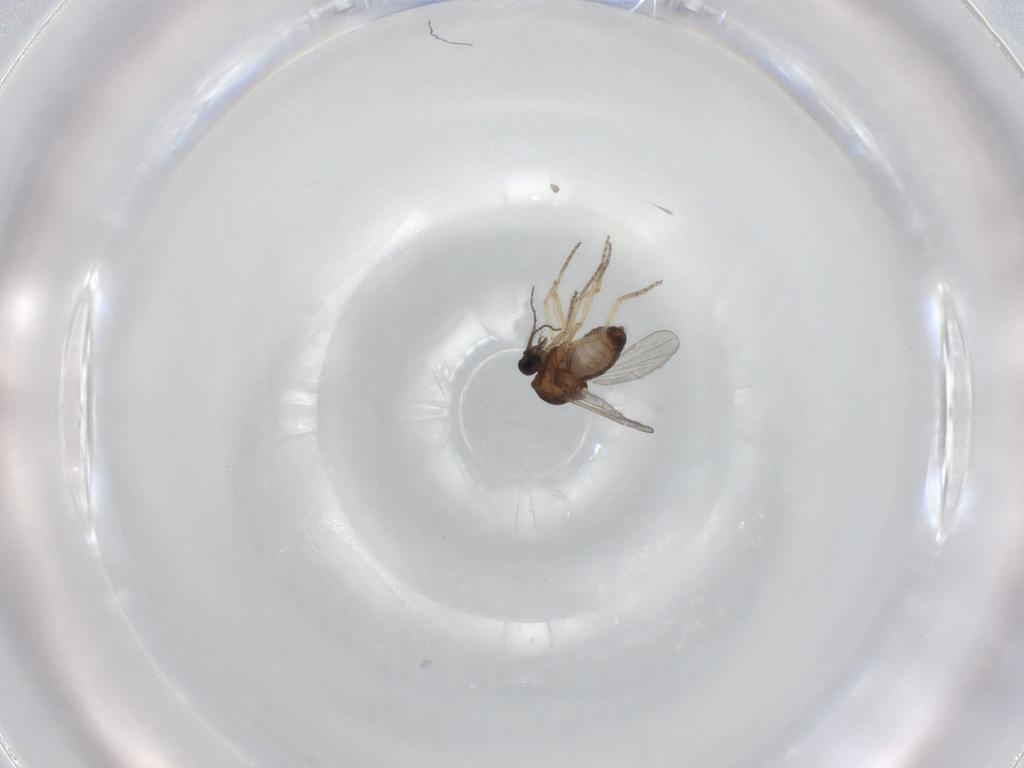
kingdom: Animalia
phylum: Arthropoda
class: Insecta
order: Diptera
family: Ceratopogonidae
